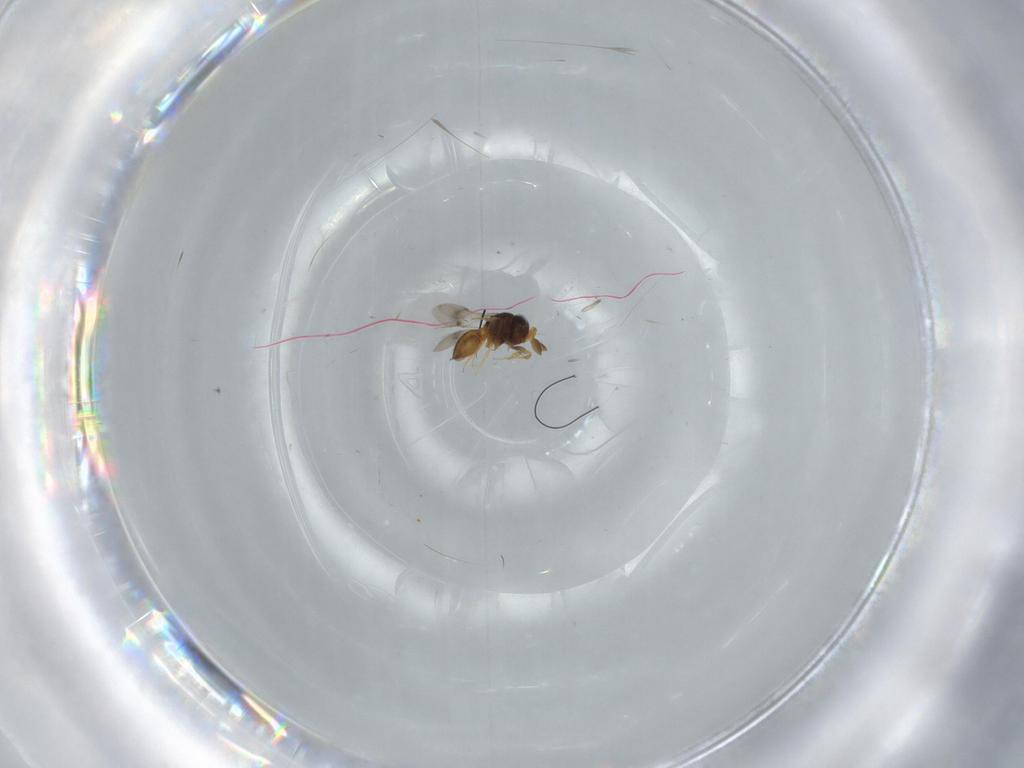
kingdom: Animalia
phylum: Arthropoda
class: Insecta
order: Hymenoptera
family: Scelionidae
